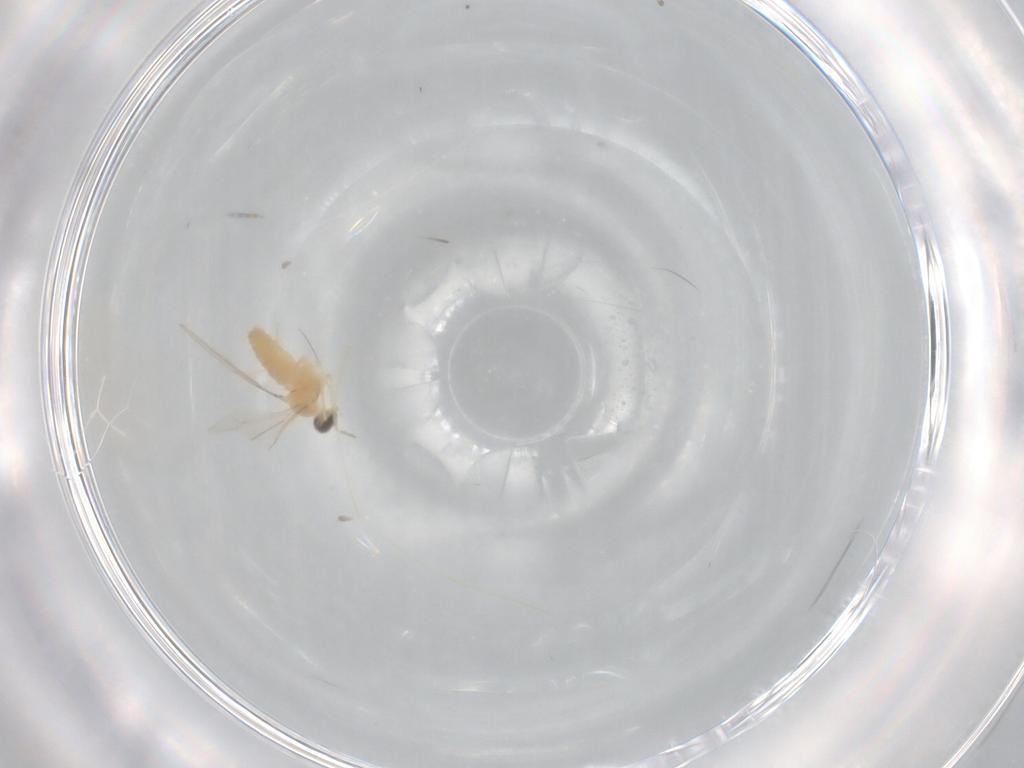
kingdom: Animalia
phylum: Arthropoda
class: Insecta
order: Diptera
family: Cecidomyiidae
